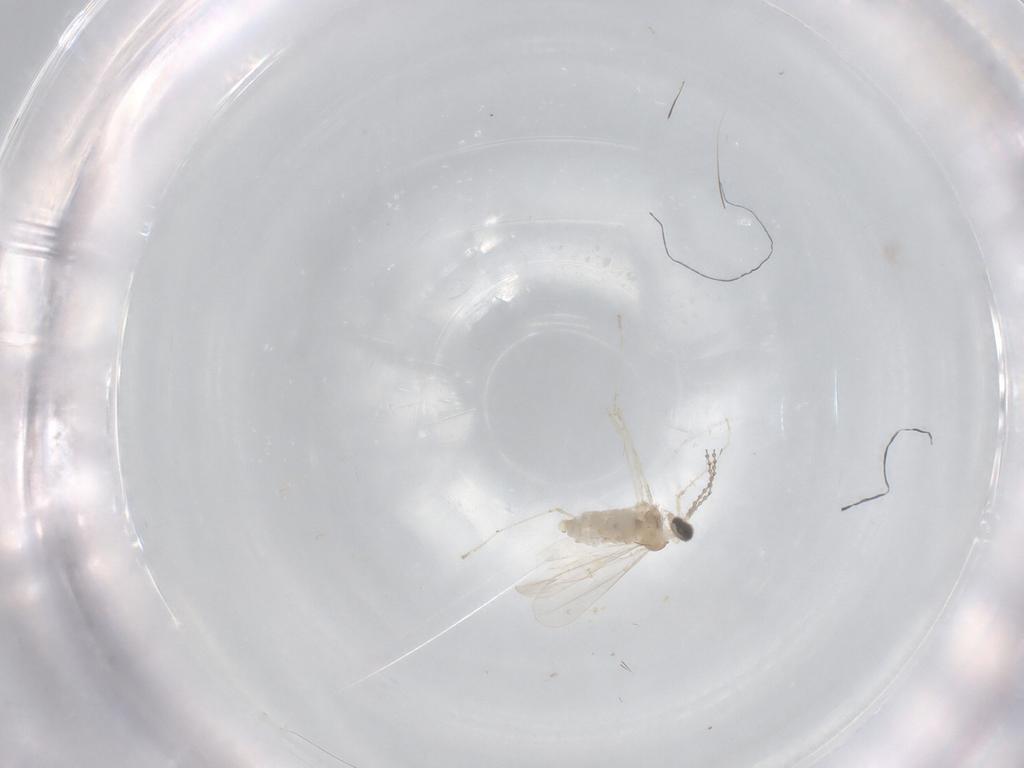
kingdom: Animalia
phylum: Arthropoda
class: Insecta
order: Diptera
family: Cecidomyiidae
